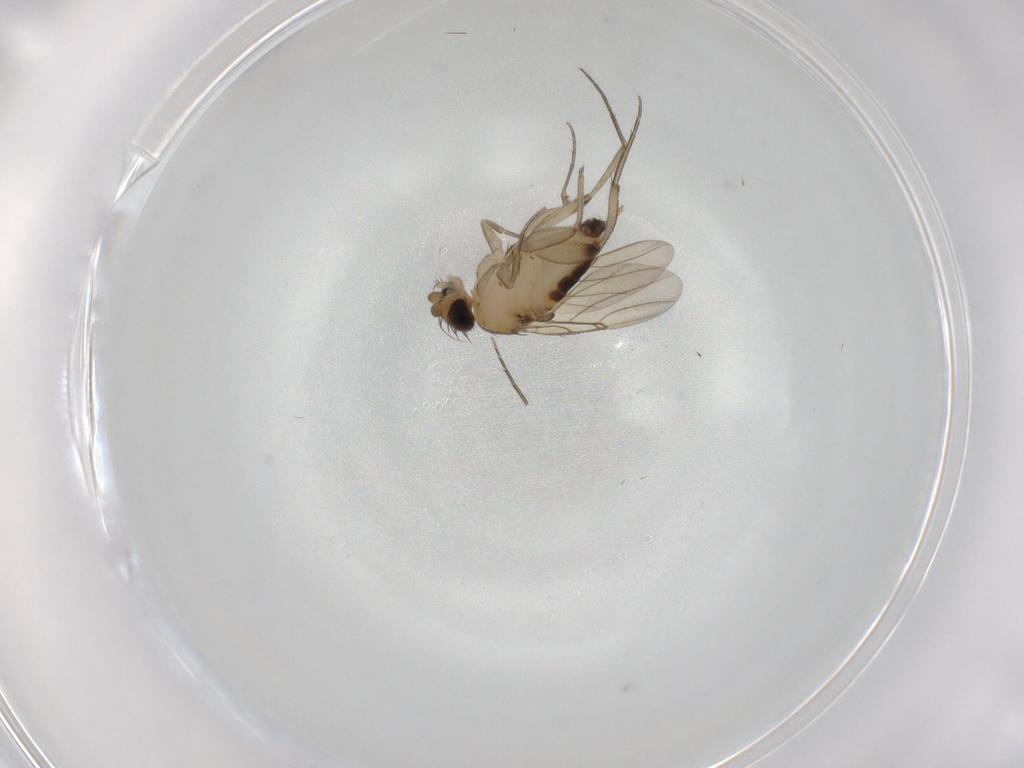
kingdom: Animalia
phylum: Arthropoda
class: Insecta
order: Diptera
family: Phoridae
